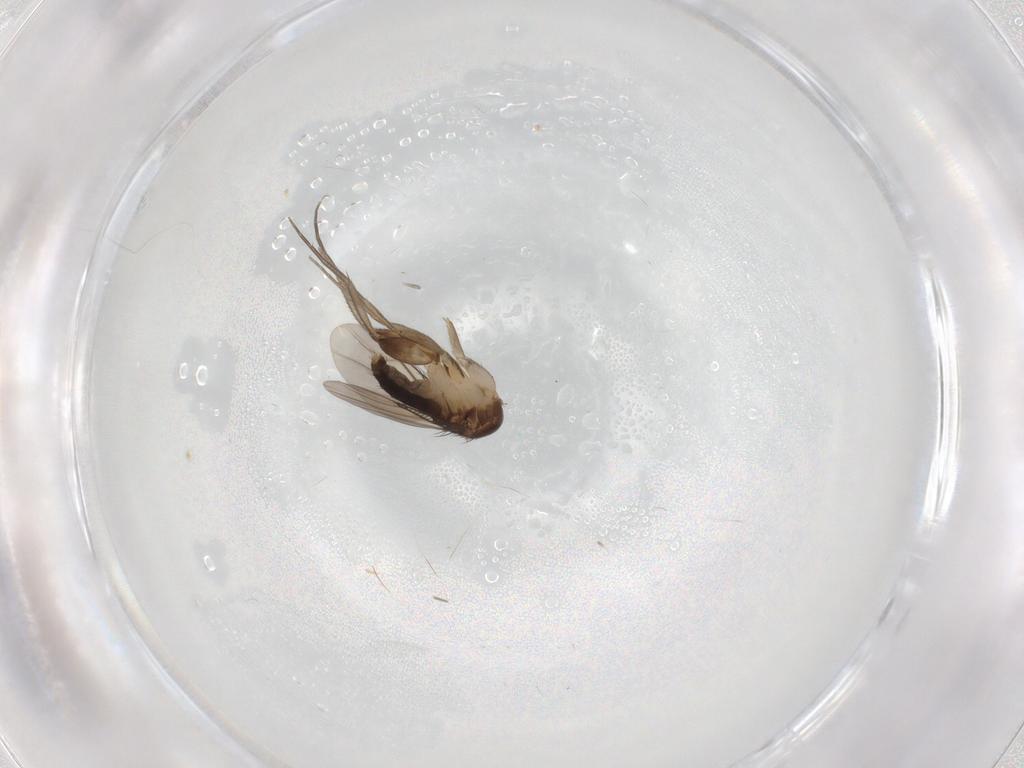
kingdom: Animalia
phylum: Arthropoda
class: Insecta
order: Diptera
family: Phoridae
